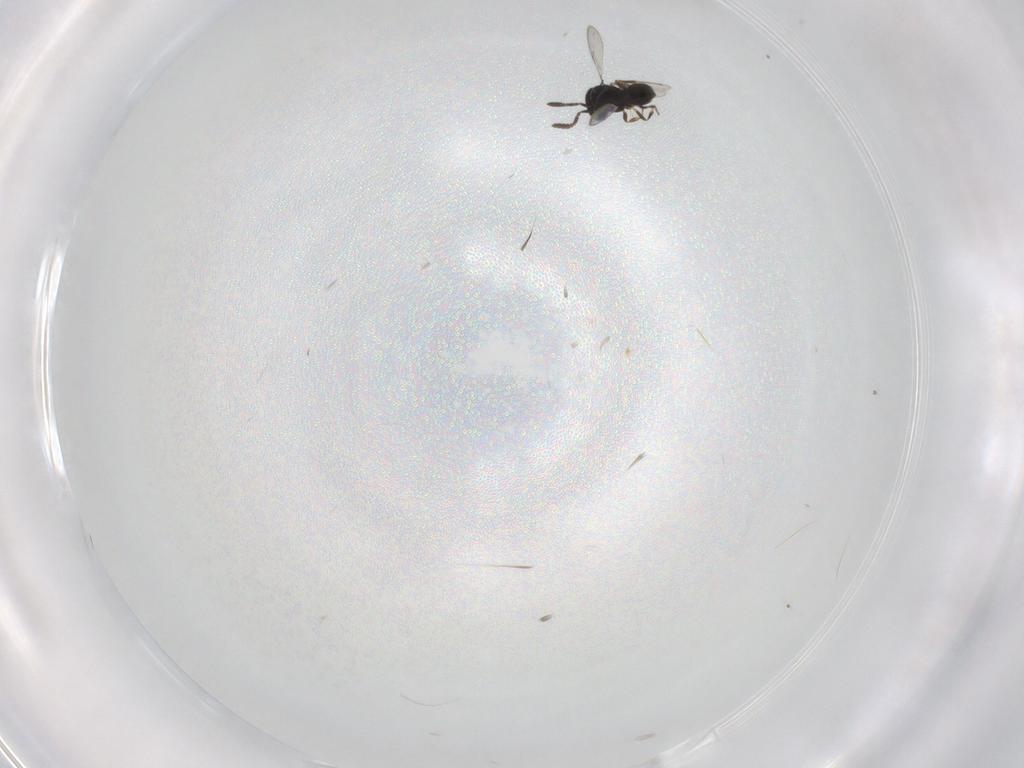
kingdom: Animalia
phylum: Arthropoda
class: Insecta
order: Hymenoptera
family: Scelionidae
